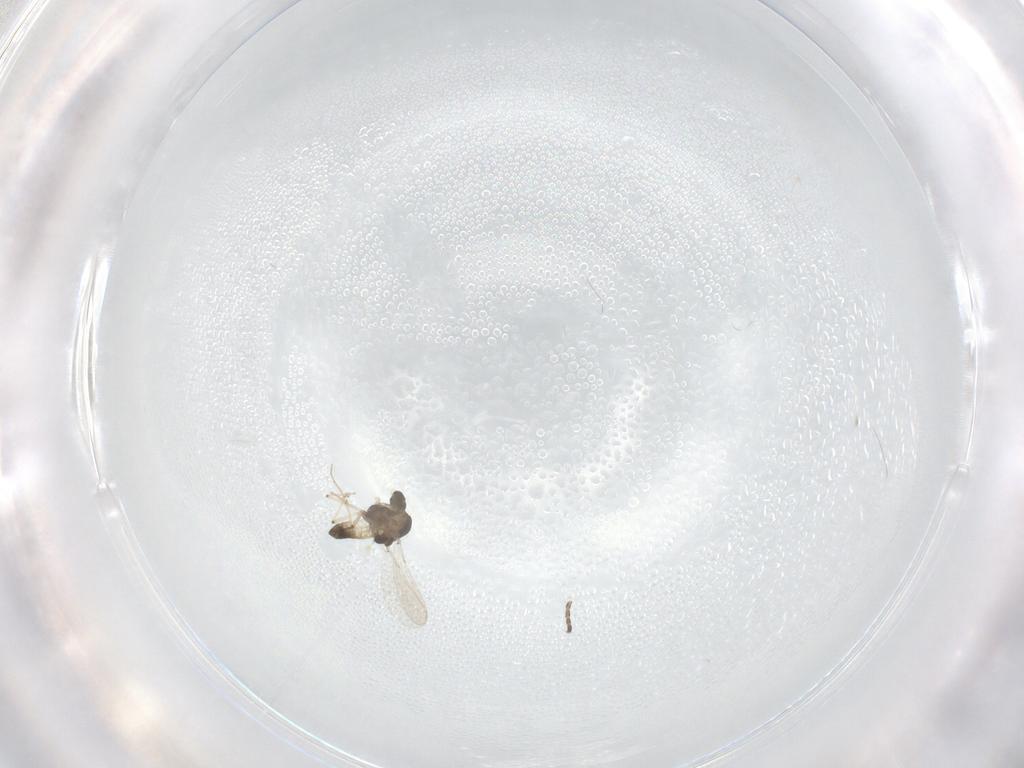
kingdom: Animalia
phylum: Arthropoda
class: Insecta
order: Diptera
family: Chironomidae
